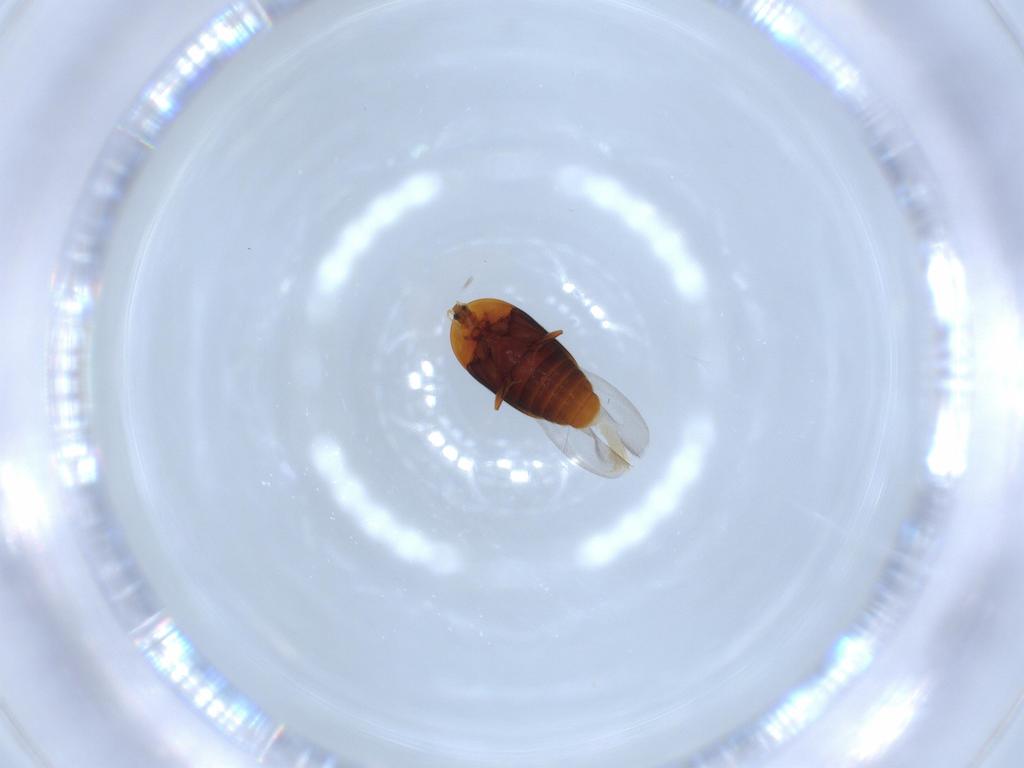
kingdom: Animalia
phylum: Arthropoda
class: Insecta
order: Coleoptera
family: Corylophidae
